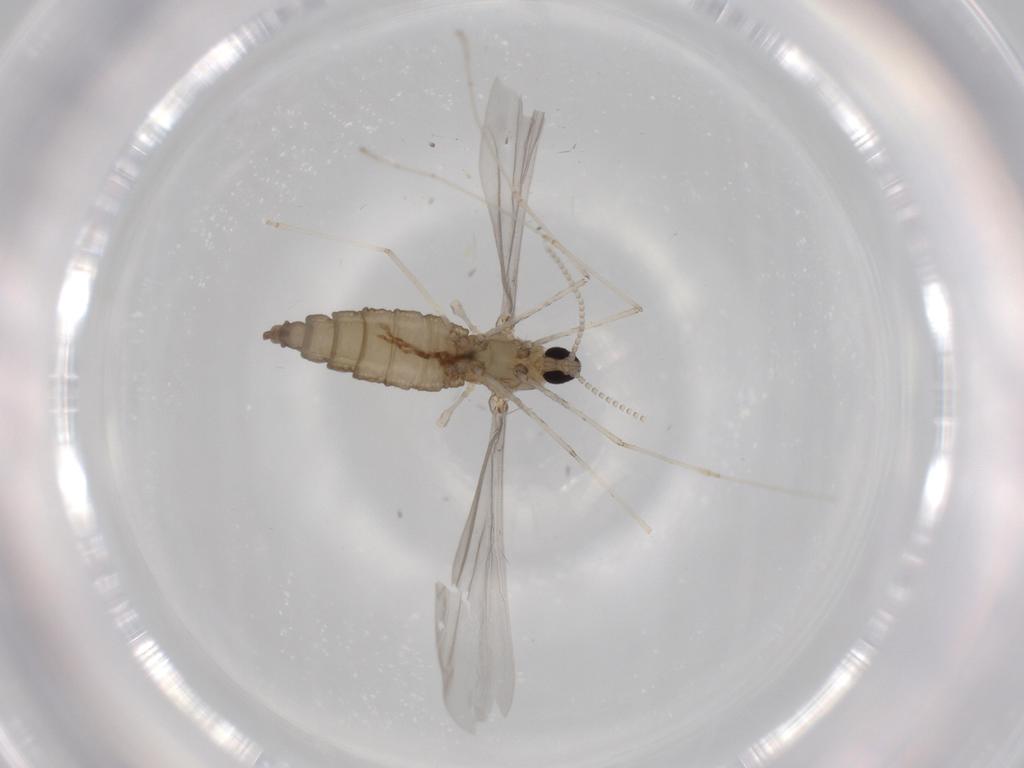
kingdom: Animalia
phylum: Arthropoda
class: Insecta
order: Diptera
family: Cecidomyiidae
